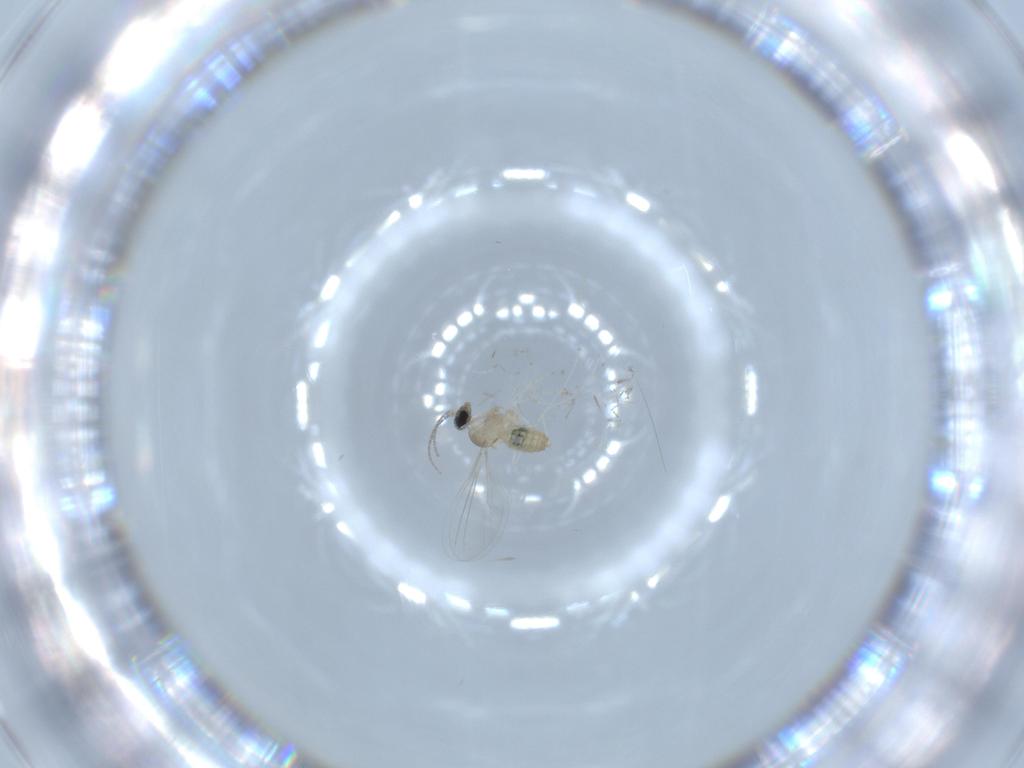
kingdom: Animalia
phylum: Arthropoda
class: Insecta
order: Diptera
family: Cecidomyiidae
